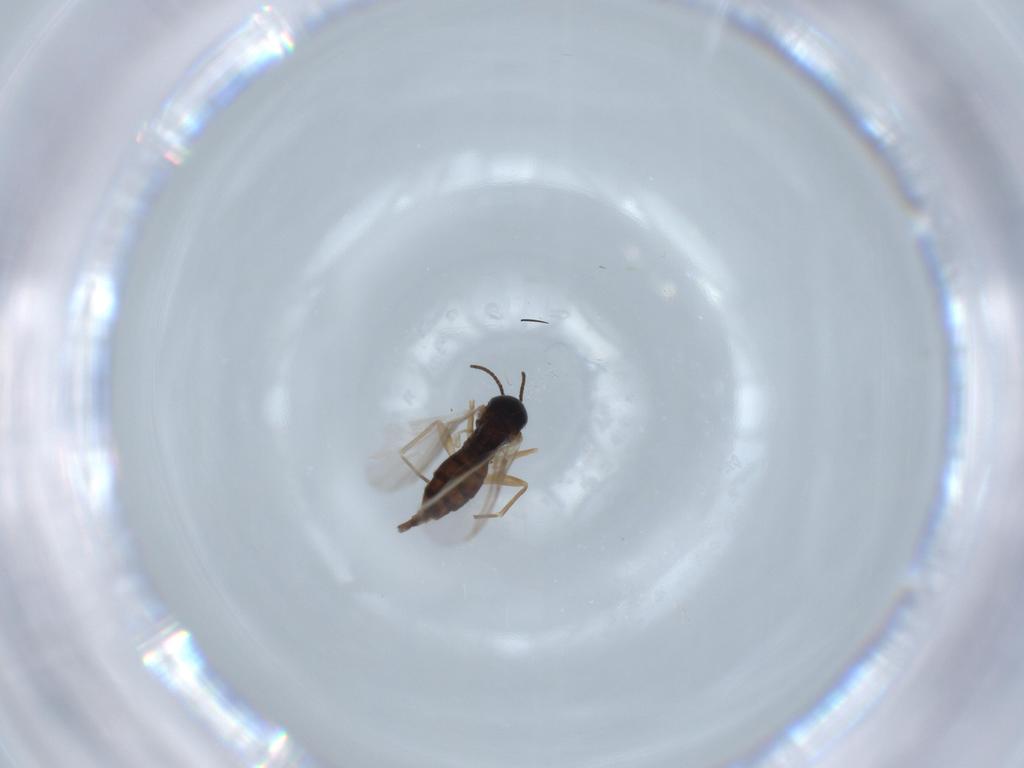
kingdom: Animalia
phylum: Arthropoda
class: Insecta
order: Diptera
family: Sciaridae
